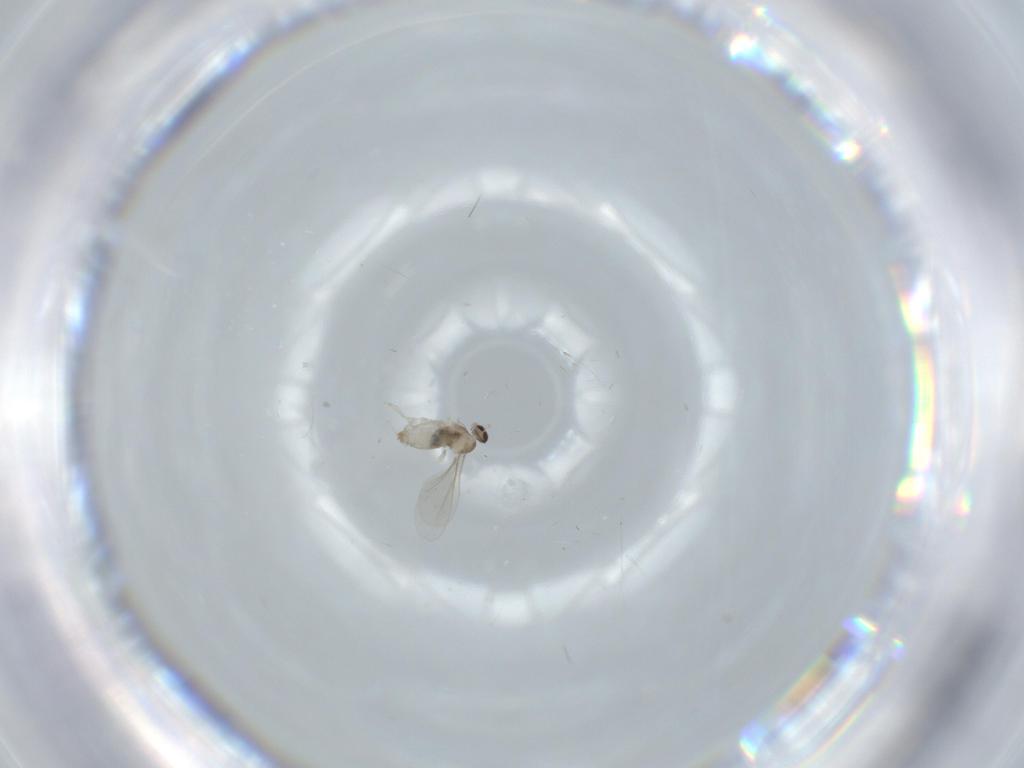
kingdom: Animalia
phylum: Arthropoda
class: Insecta
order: Diptera
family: Cecidomyiidae
